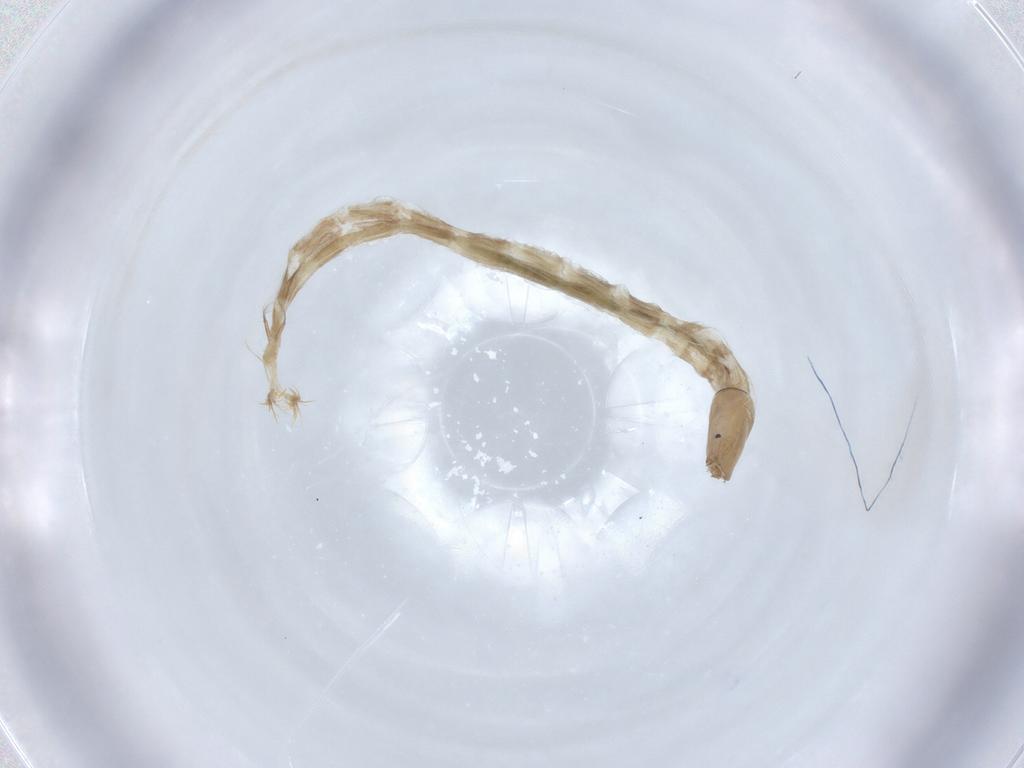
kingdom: Animalia
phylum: Arthropoda
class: Insecta
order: Diptera
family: Chironomidae
